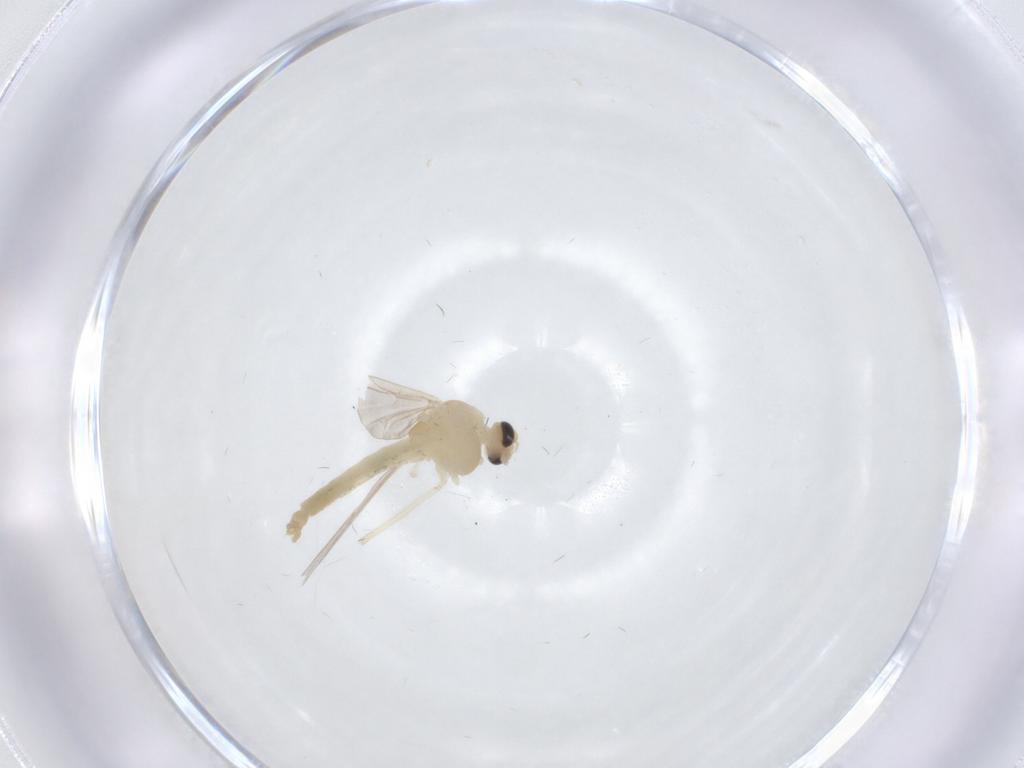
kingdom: Animalia
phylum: Arthropoda
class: Insecta
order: Diptera
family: Chironomidae
